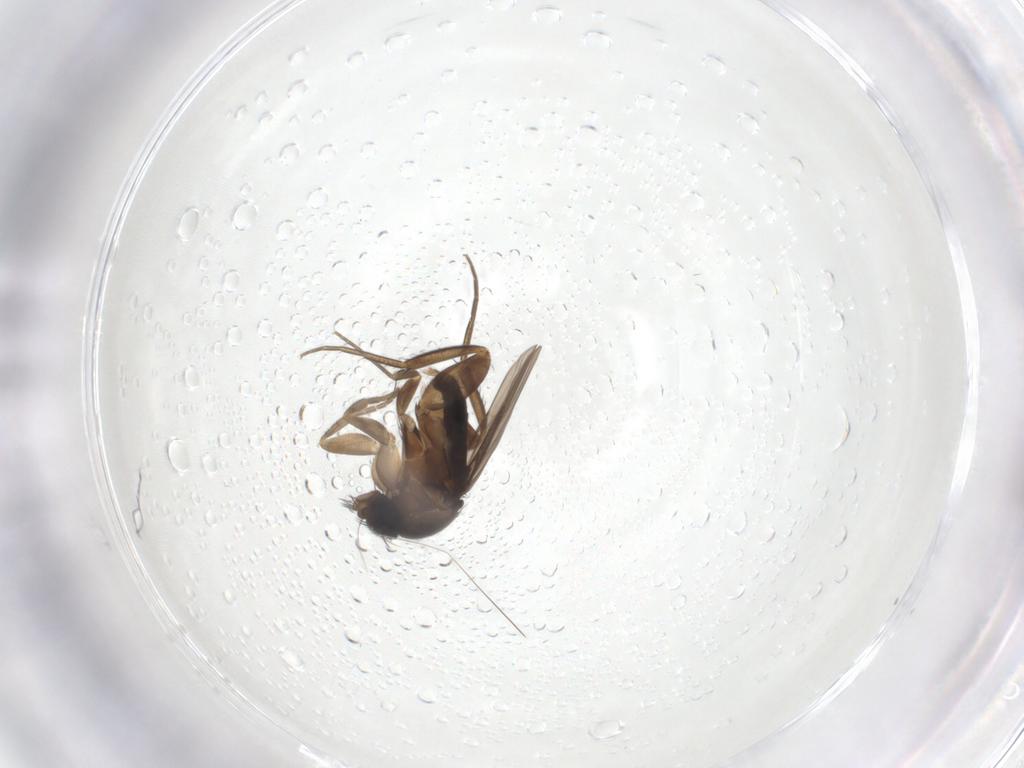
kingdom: Animalia
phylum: Arthropoda
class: Insecta
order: Diptera
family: Phoridae
